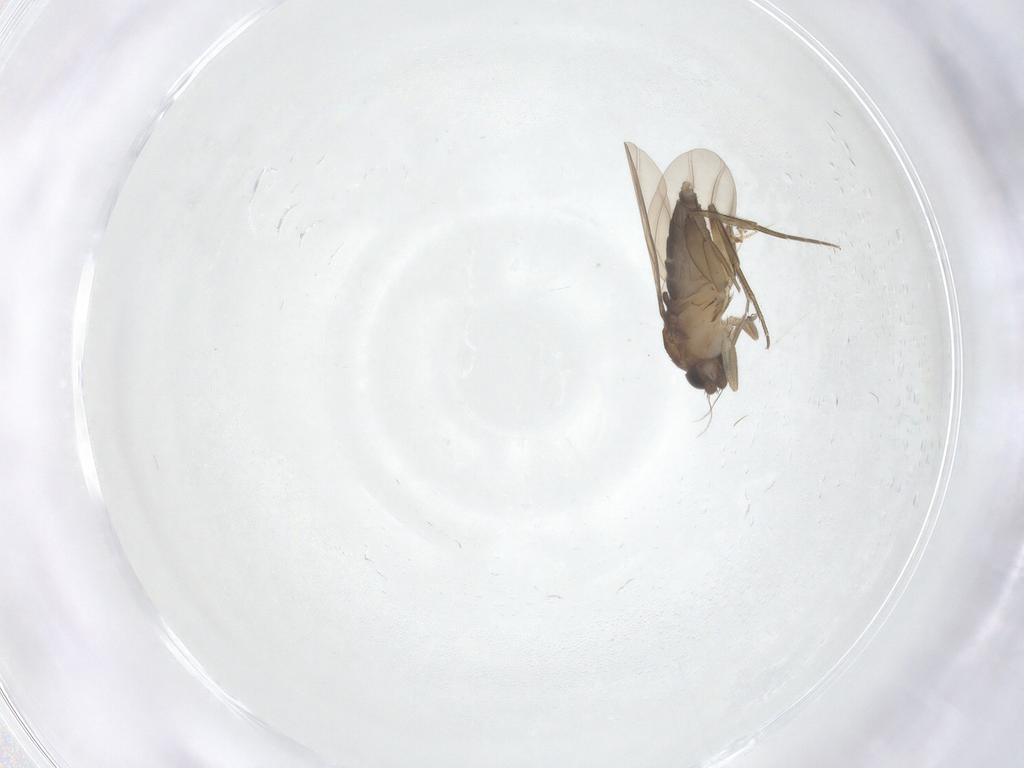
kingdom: Animalia
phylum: Arthropoda
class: Insecta
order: Diptera
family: Phoridae
